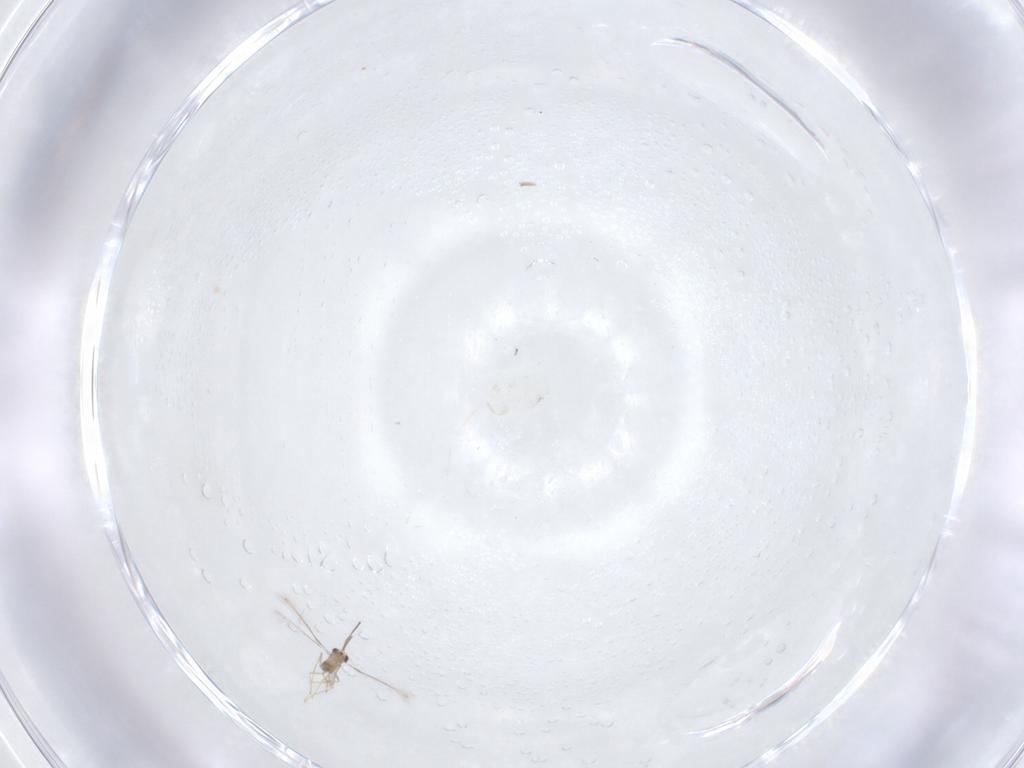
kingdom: Animalia
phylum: Arthropoda
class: Insecta
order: Hymenoptera
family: Mymaridae
